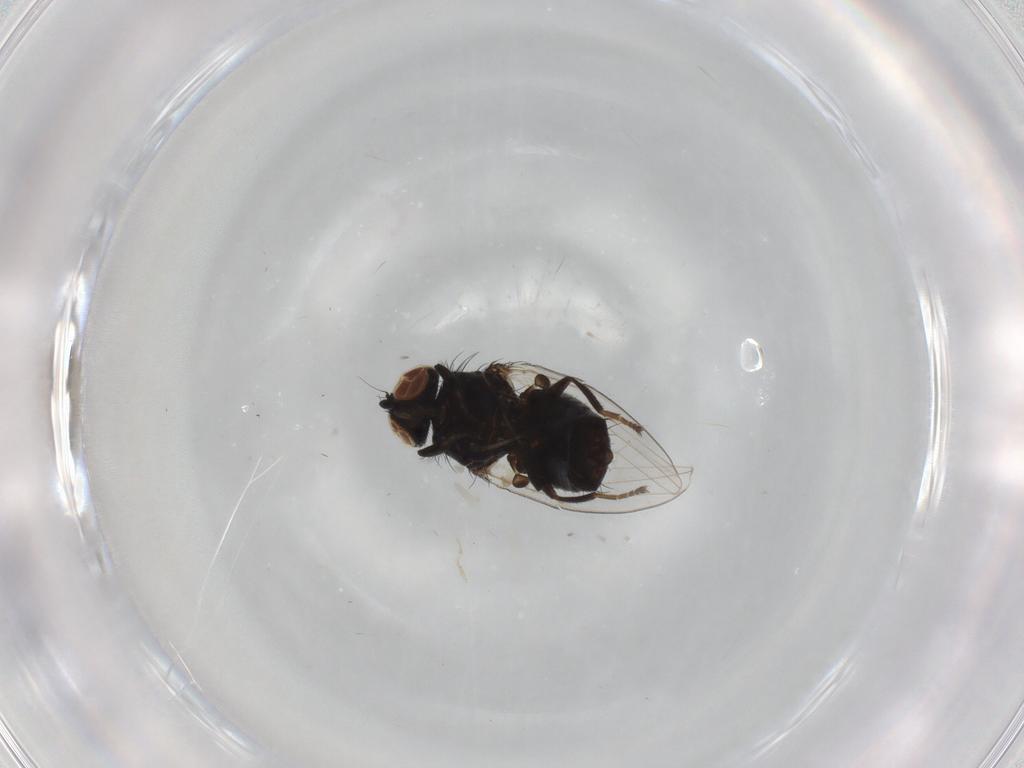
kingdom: Animalia
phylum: Arthropoda
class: Insecta
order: Diptera
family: Milichiidae
